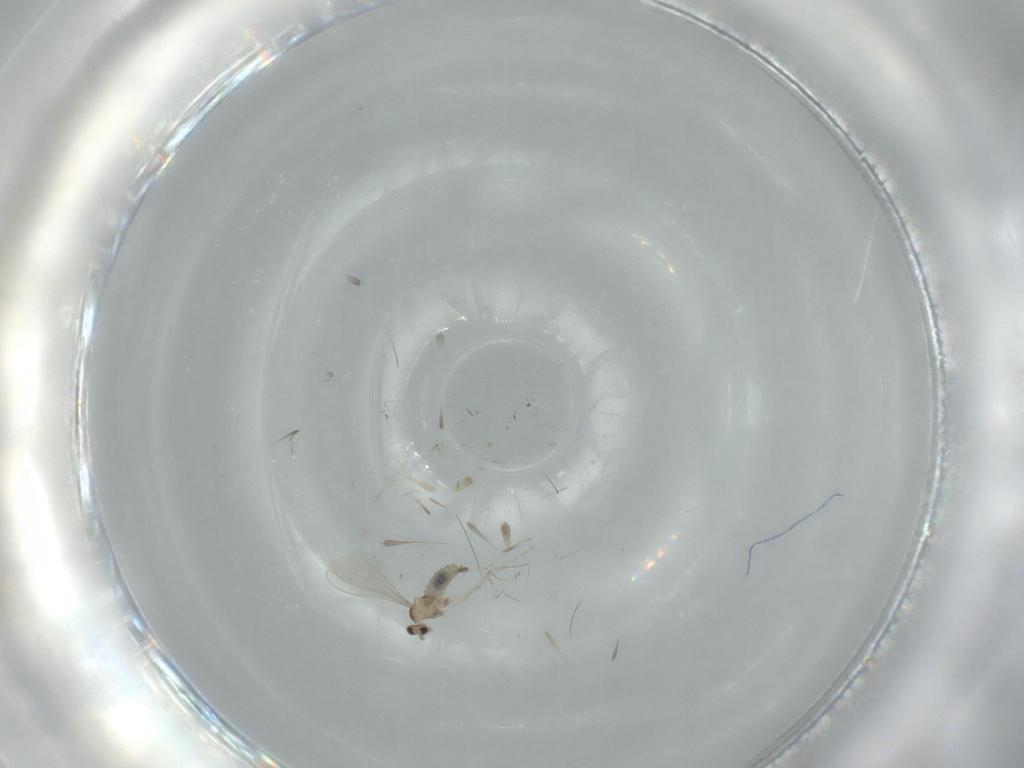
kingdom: Animalia
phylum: Arthropoda
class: Insecta
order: Diptera
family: Cecidomyiidae
